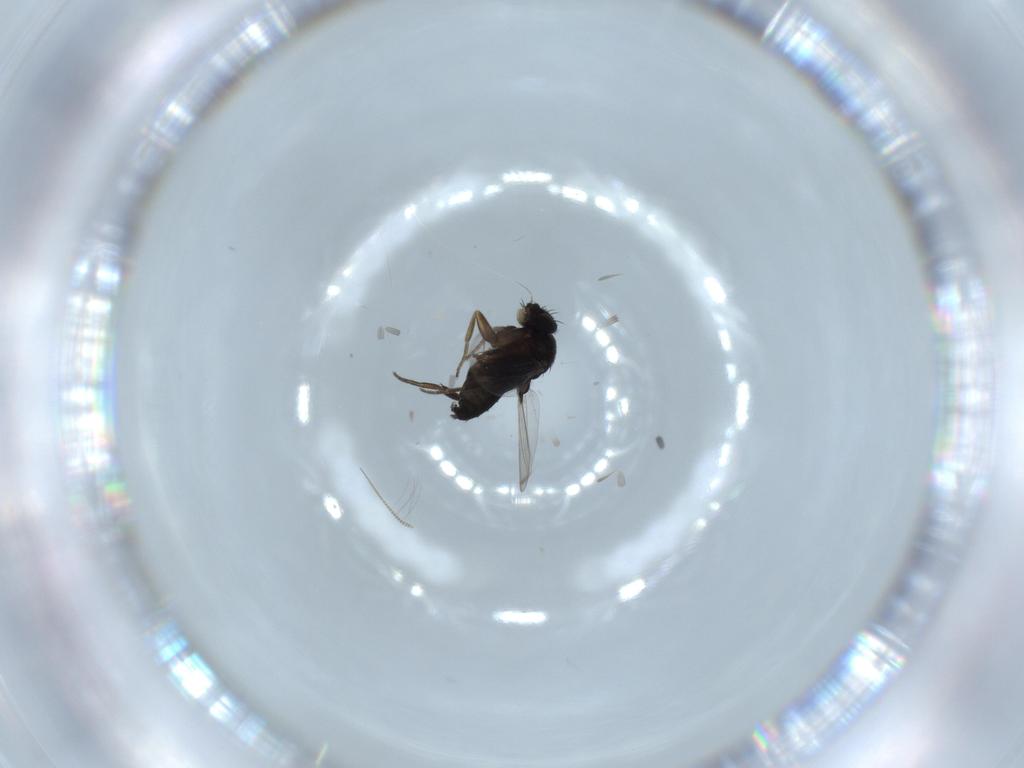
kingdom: Animalia
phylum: Arthropoda
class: Insecta
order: Diptera
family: Phoridae
